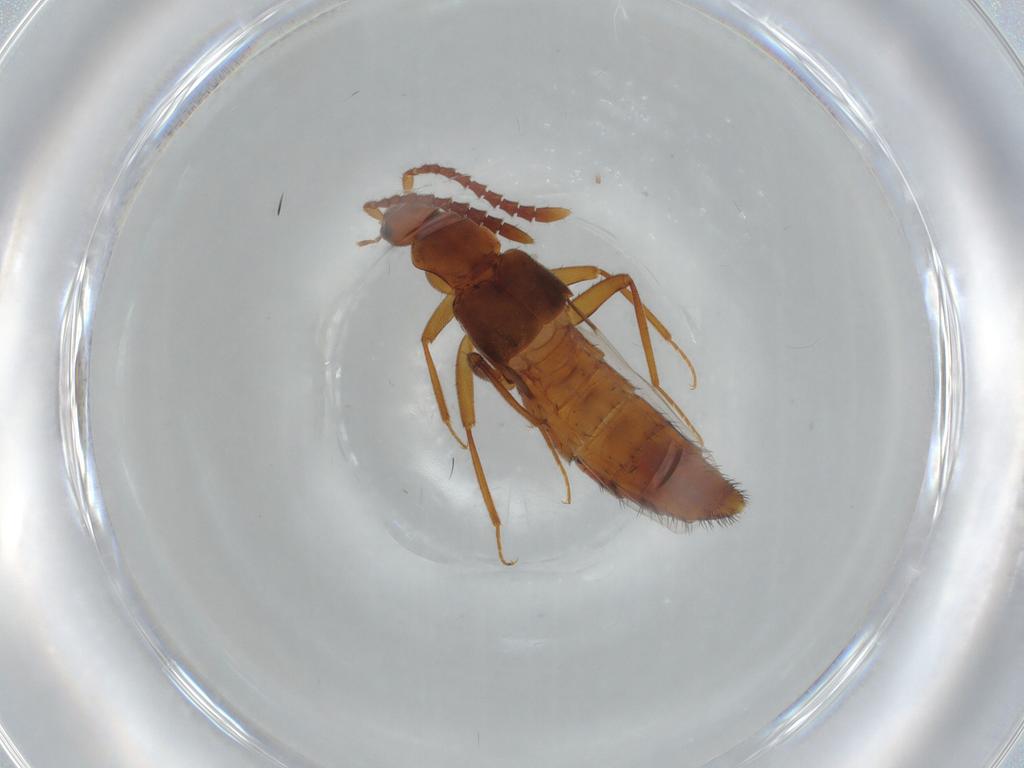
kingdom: Animalia
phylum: Arthropoda
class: Insecta
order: Coleoptera
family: Staphylinidae
